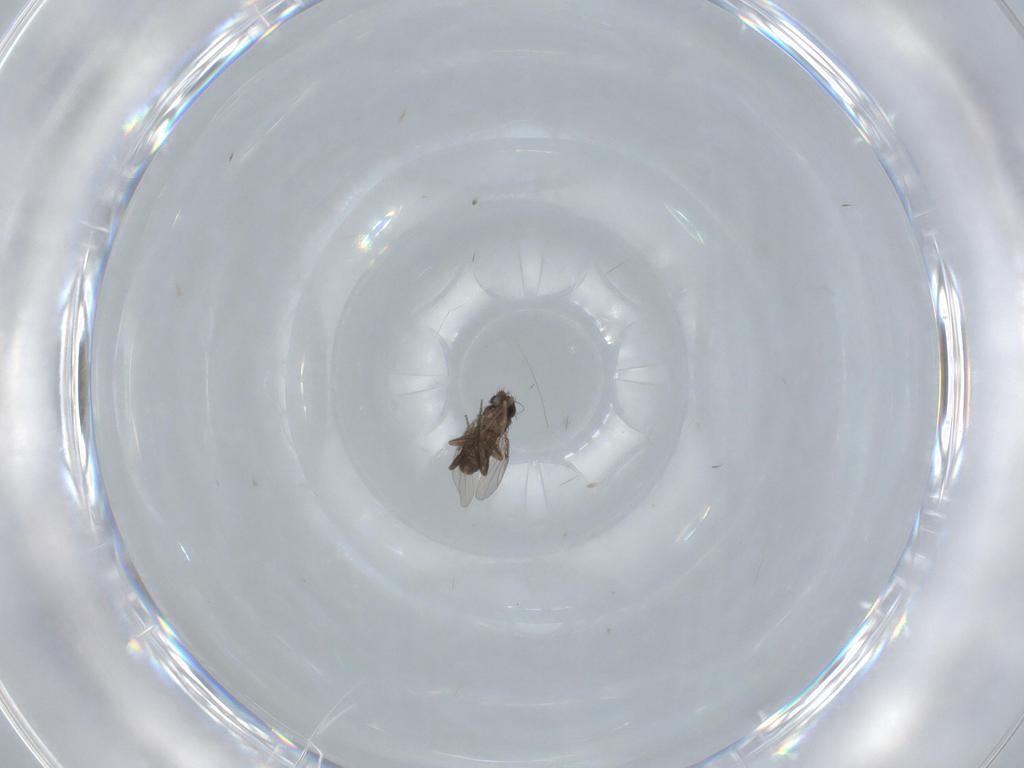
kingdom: Animalia
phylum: Arthropoda
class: Insecta
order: Diptera
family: Phoridae
